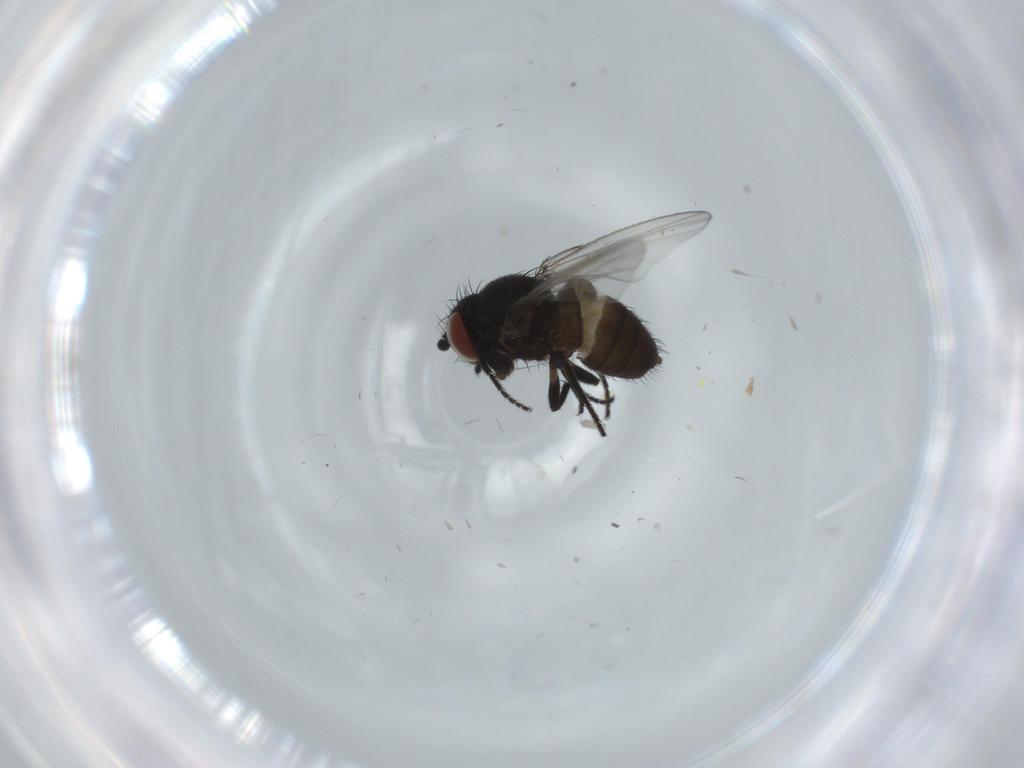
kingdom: Animalia
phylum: Arthropoda
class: Insecta
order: Diptera
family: Milichiidae
